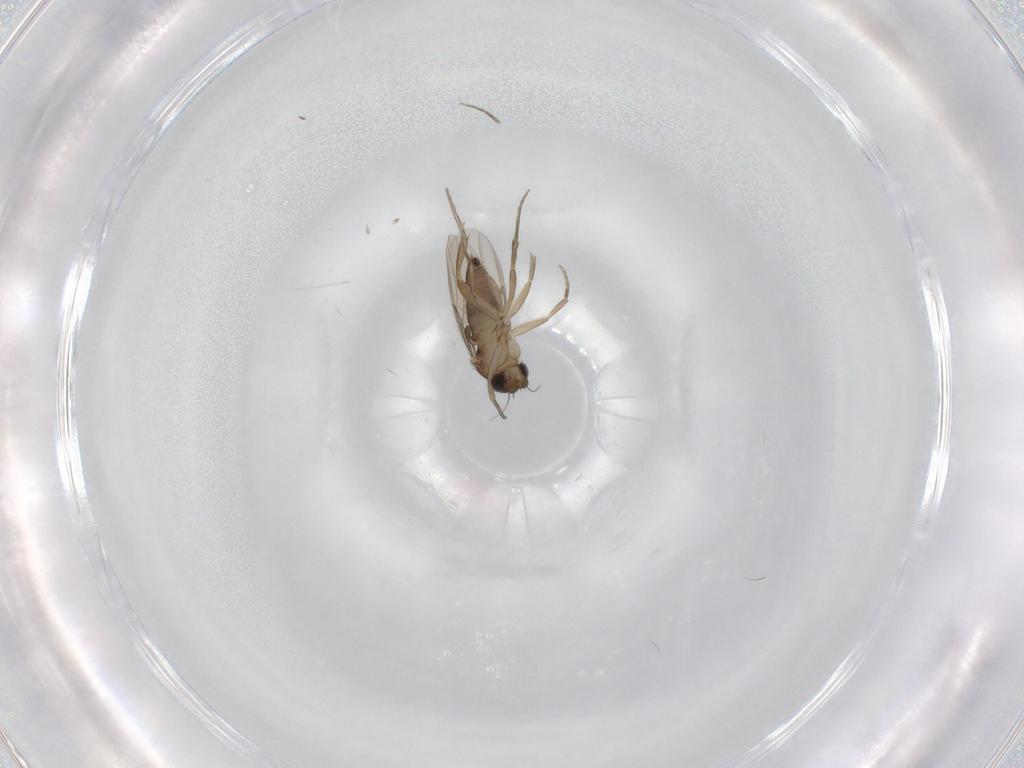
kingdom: Animalia
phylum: Arthropoda
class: Insecta
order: Diptera
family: Phoridae
